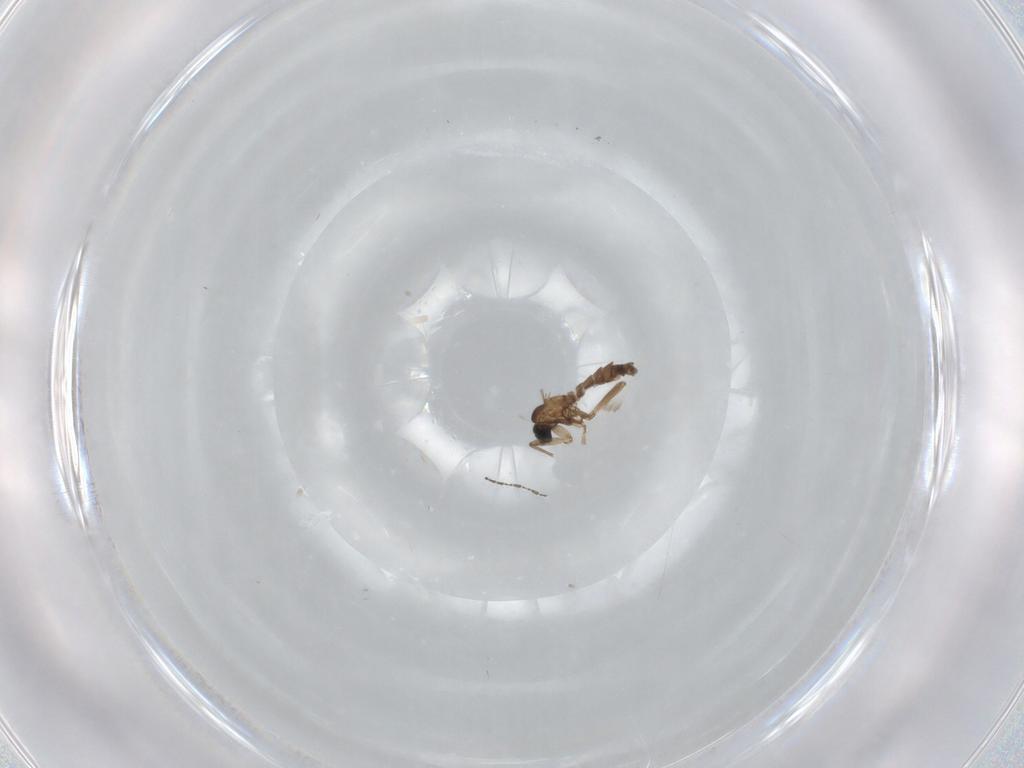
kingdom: Animalia
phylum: Arthropoda
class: Insecta
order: Diptera
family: Sciaridae
